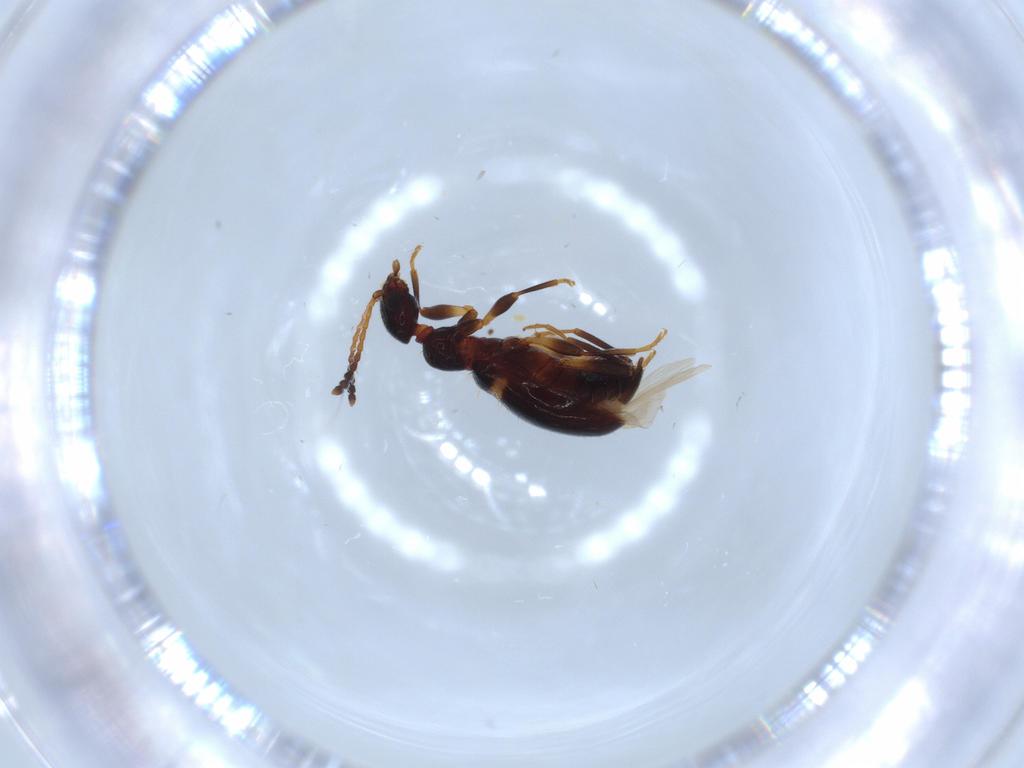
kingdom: Animalia
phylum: Arthropoda
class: Insecta
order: Coleoptera
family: Anthicidae
